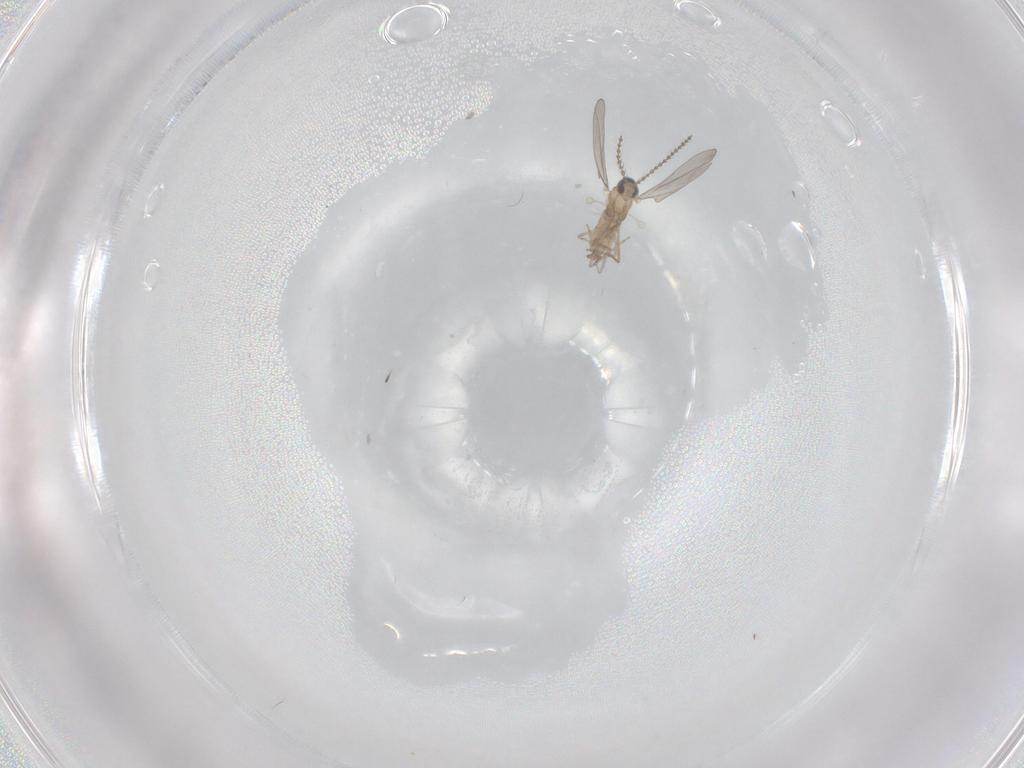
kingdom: Animalia
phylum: Arthropoda
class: Insecta
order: Diptera
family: Cecidomyiidae
